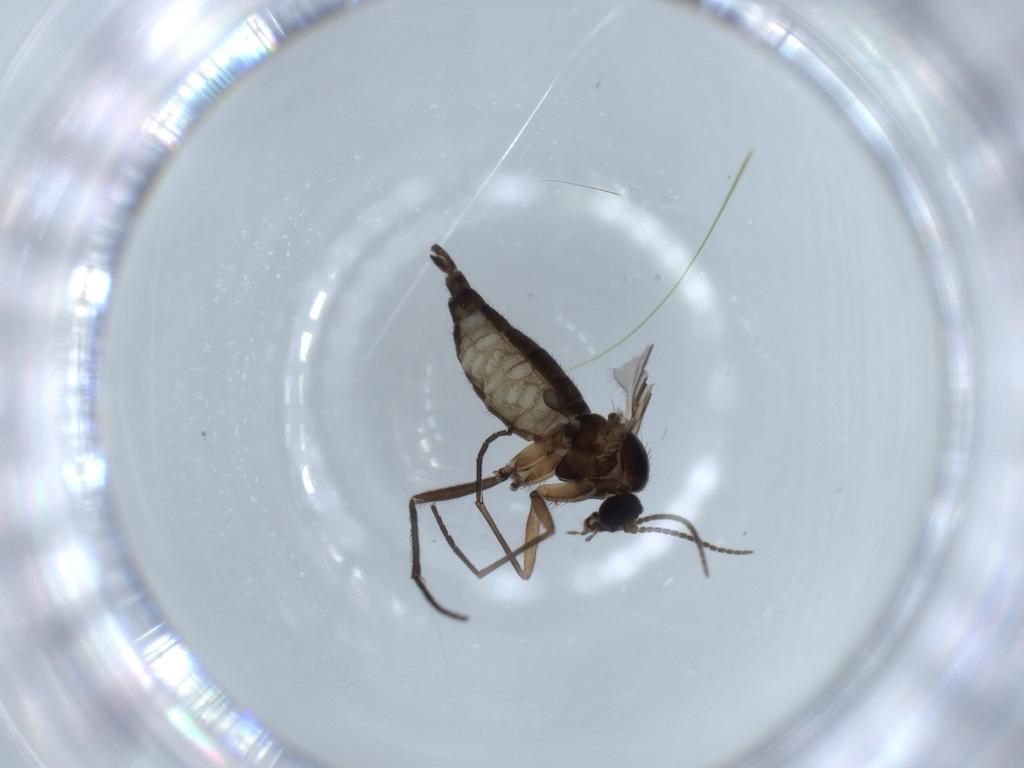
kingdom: Animalia
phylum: Arthropoda
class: Insecta
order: Diptera
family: Cecidomyiidae
